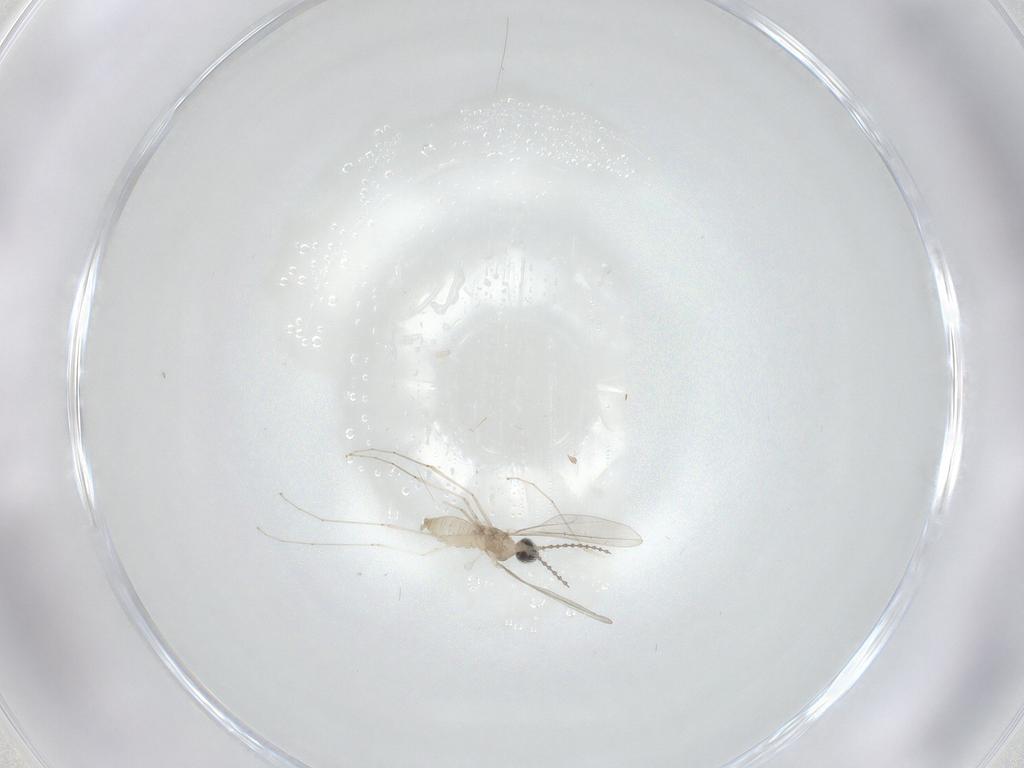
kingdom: Animalia
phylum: Arthropoda
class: Insecta
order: Diptera
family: Cecidomyiidae
